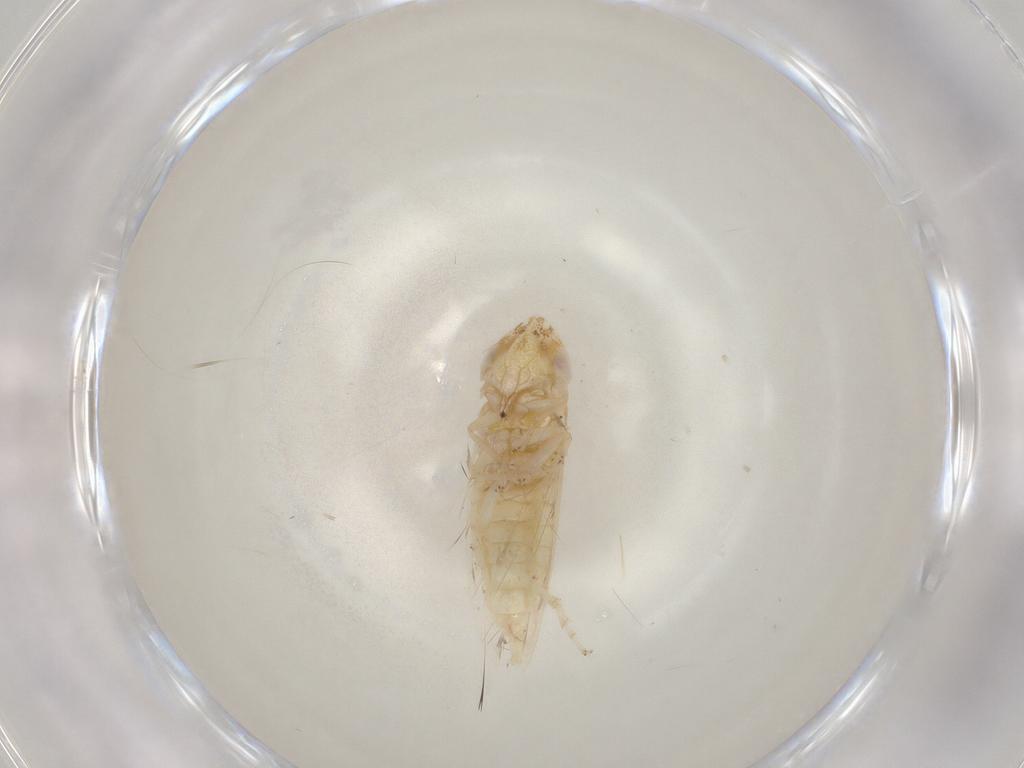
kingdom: Animalia
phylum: Arthropoda
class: Insecta
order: Hemiptera
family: Cicadellidae
